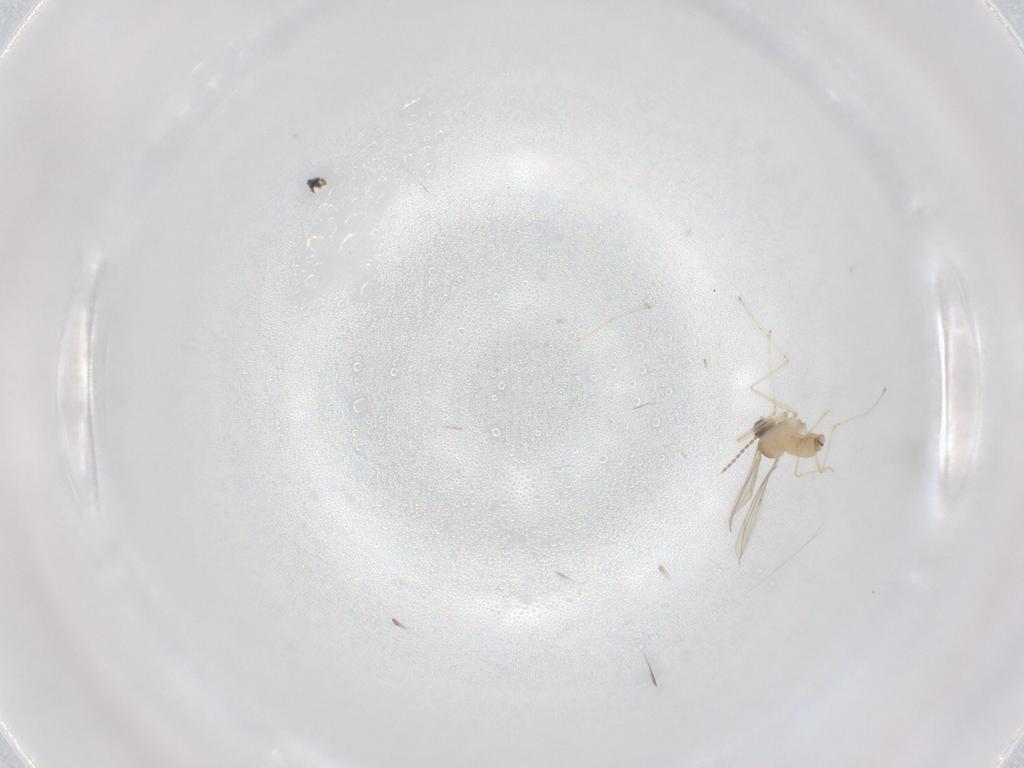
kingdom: Animalia
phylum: Arthropoda
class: Insecta
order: Diptera
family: Cecidomyiidae
